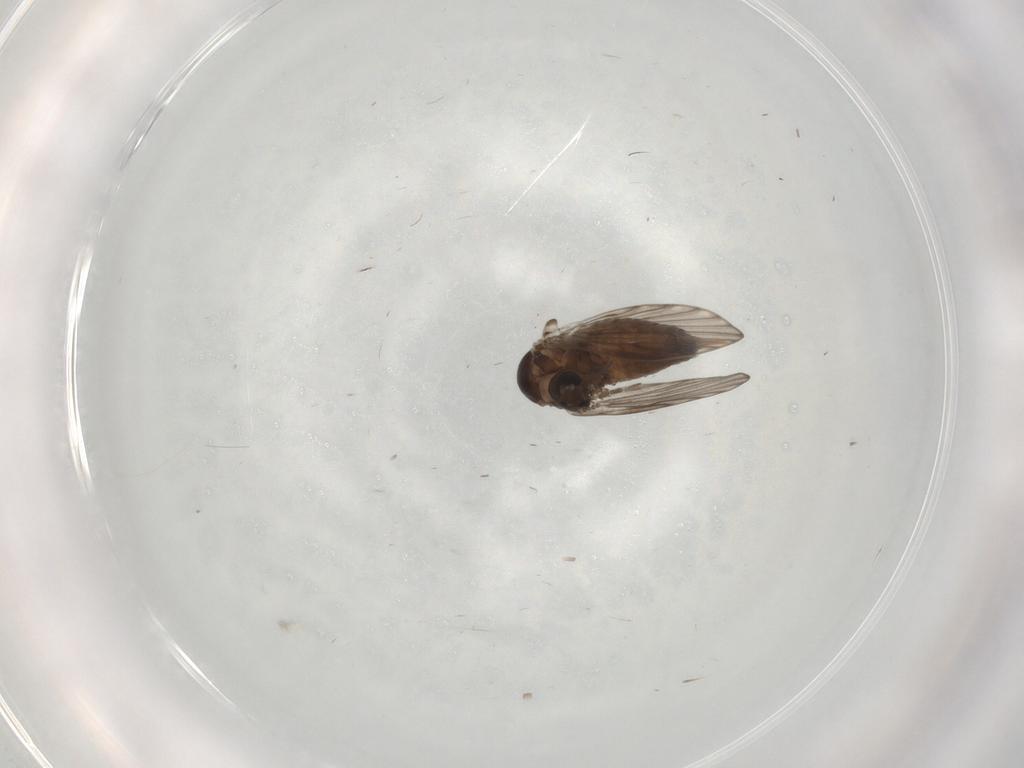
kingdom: Animalia
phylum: Arthropoda
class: Insecta
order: Diptera
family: Psychodidae
